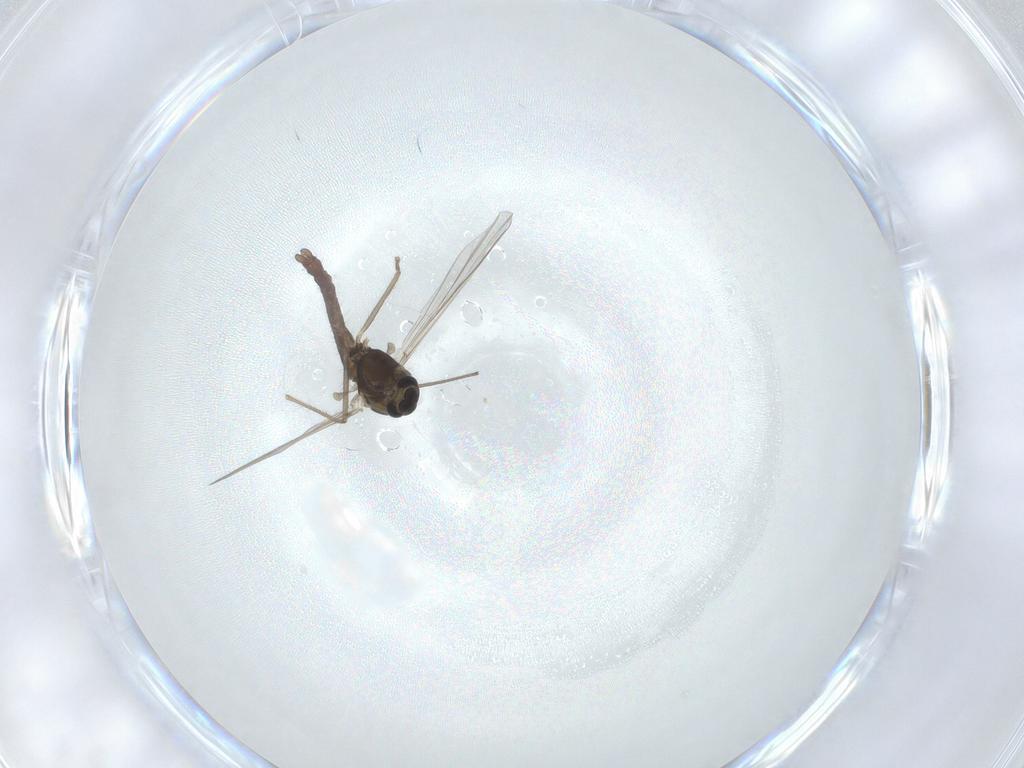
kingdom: Animalia
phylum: Arthropoda
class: Insecta
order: Diptera
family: Chironomidae
